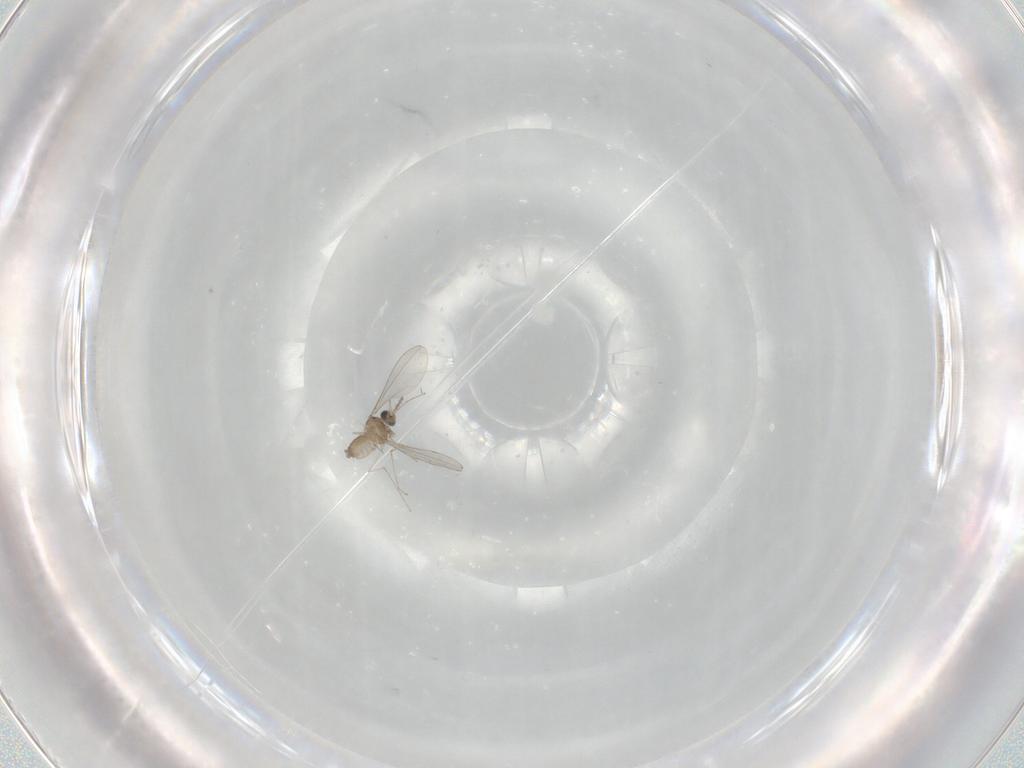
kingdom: Animalia
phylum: Arthropoda
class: Insecta
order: Diptera
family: Cecidomyiidae
